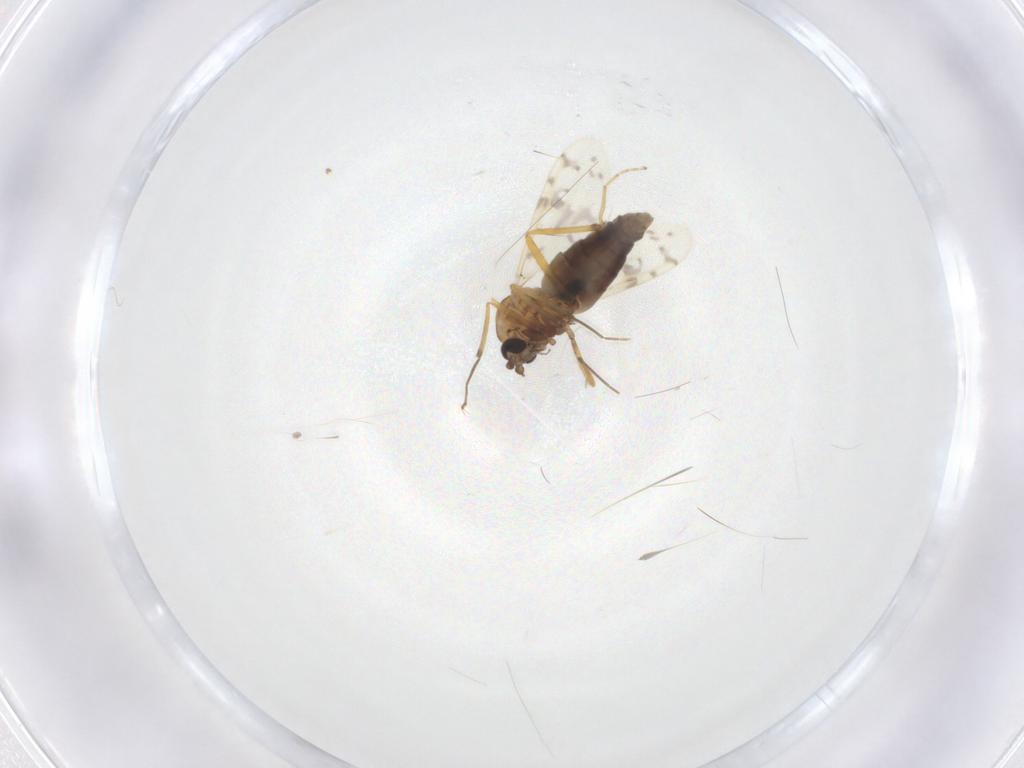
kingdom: Animalia
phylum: Arthropoda
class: Insecta
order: Diptera
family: Ceratopogonidae
